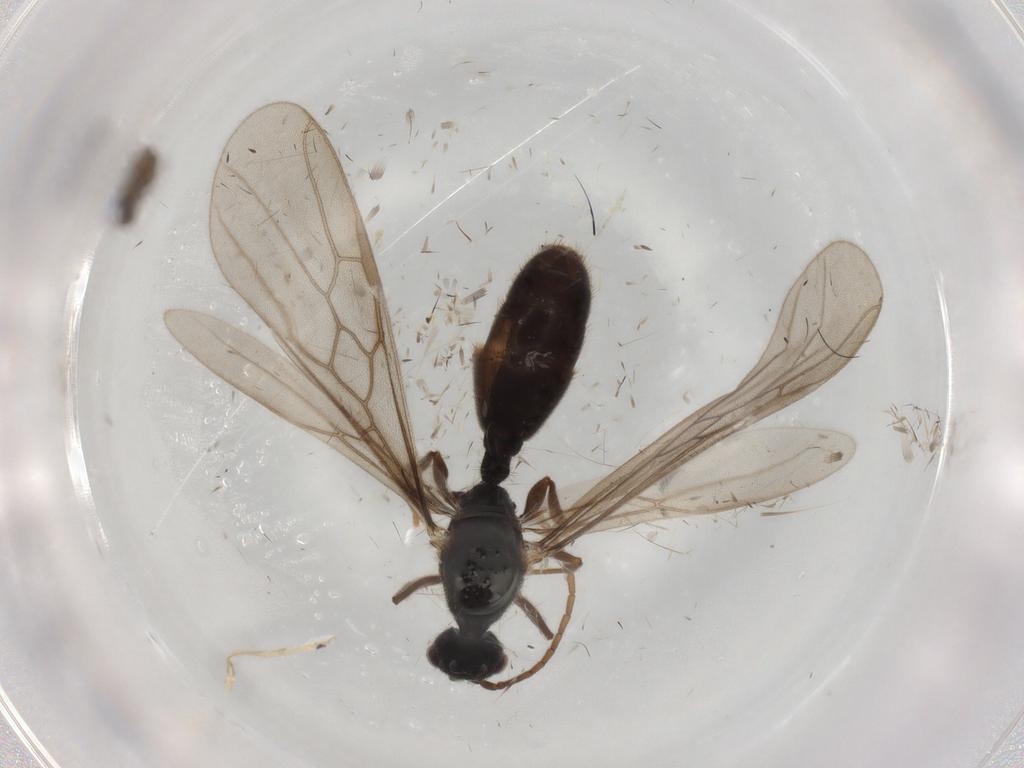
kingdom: Animalia
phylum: Arthropoda
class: Insecta
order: Hymenoptera
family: Formicidae
